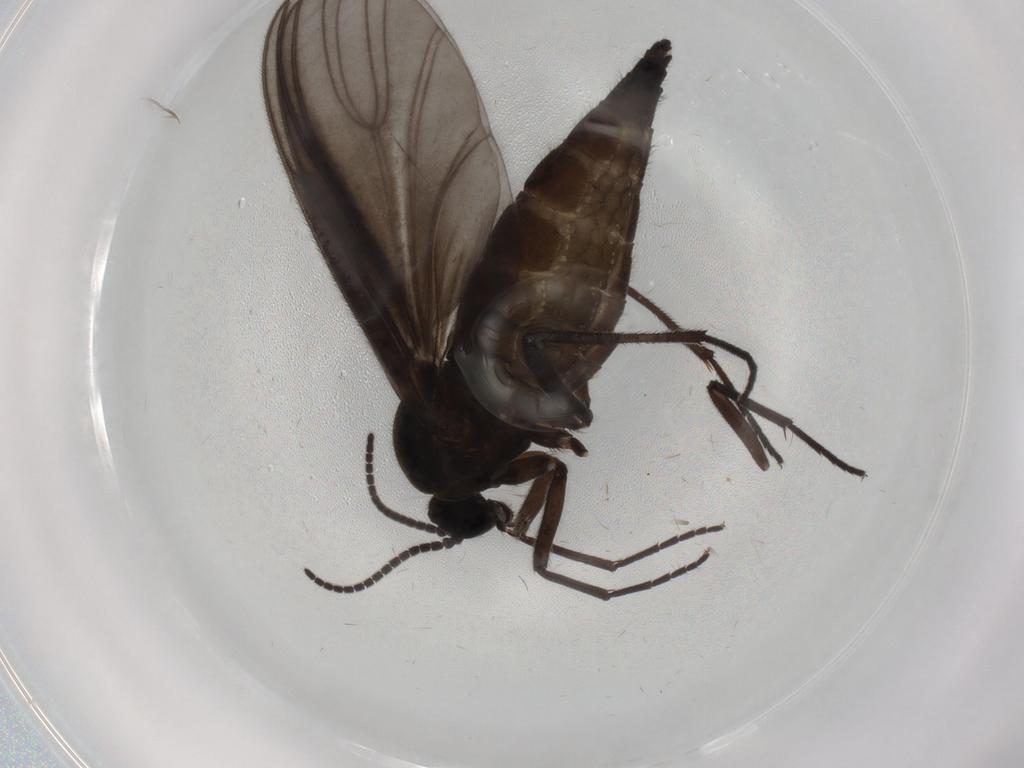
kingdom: Animalia
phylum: Arthropoda
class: Insecta
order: Diptera
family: Sciaridae
